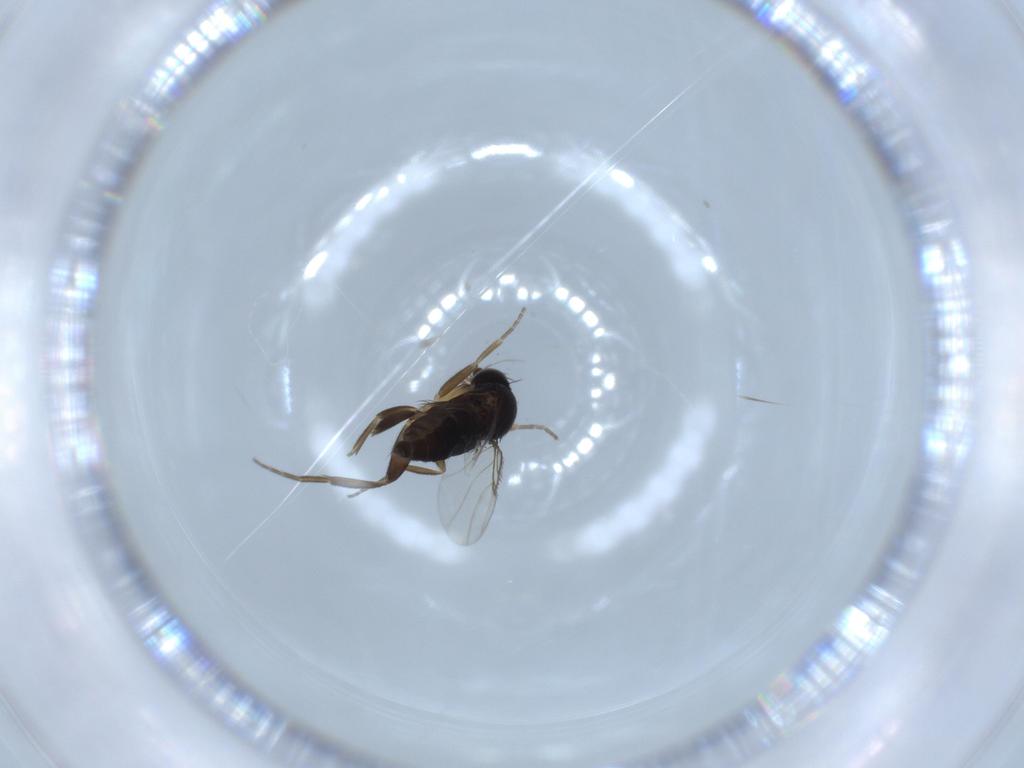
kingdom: Animalia
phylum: Arthropoda
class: Insecta
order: Diptera
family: Phoridae
